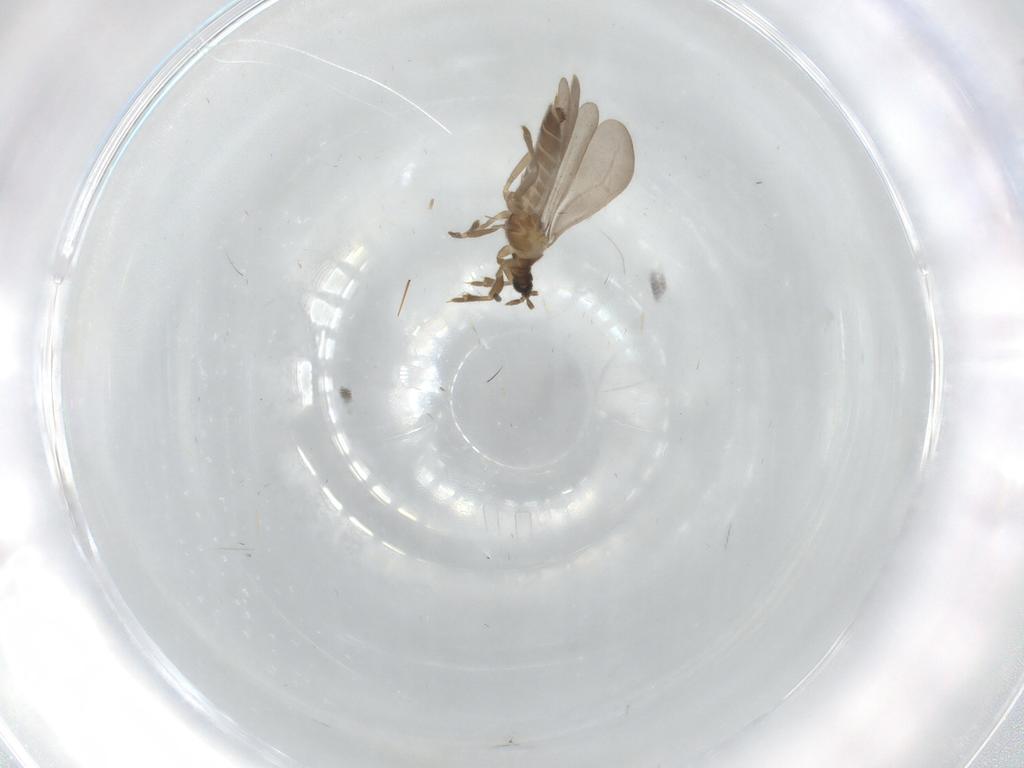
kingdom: Animalia
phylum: Arthropoda
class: Insecta
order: Hemiptera
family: Enicocephalidae
